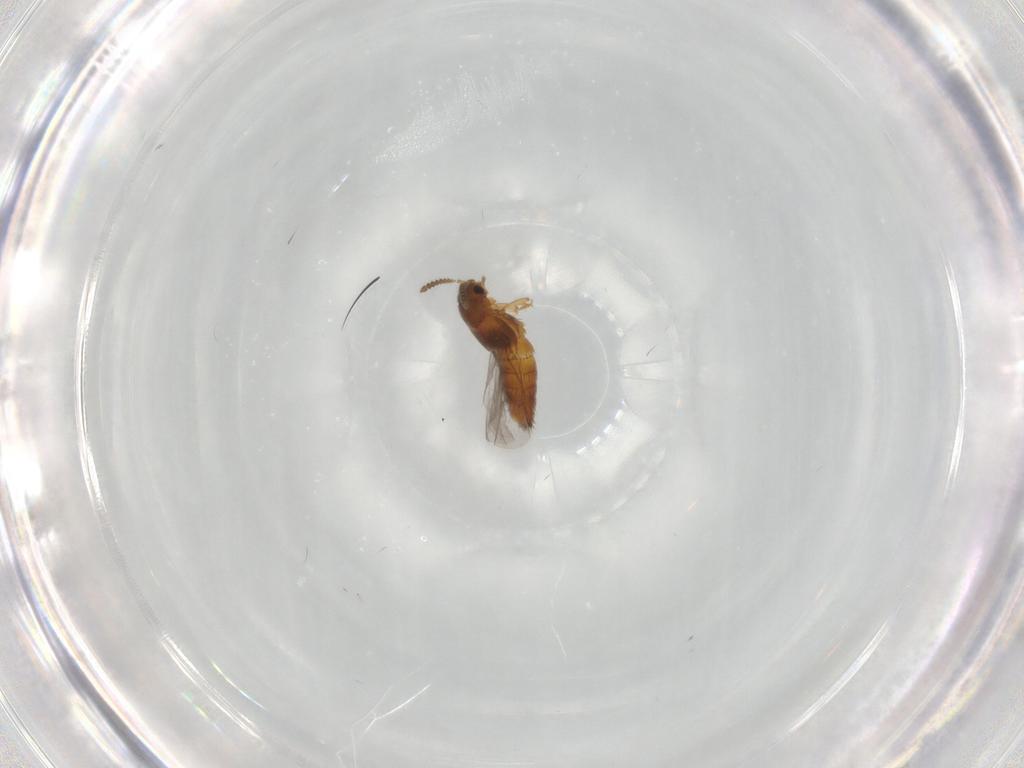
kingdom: Animalia
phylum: Arthropoda
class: Insecta
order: Coleoptera
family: Staphylinidae
